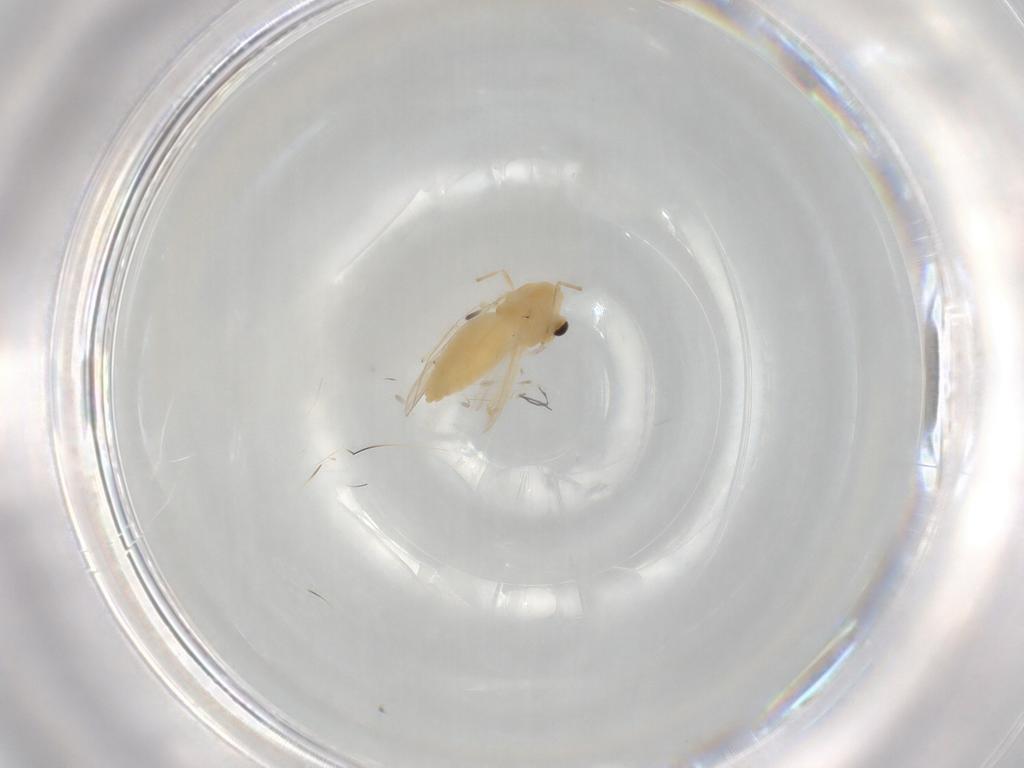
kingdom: Animalia
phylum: Arthropoda
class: Insecta
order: Diptera
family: Chironomidae
